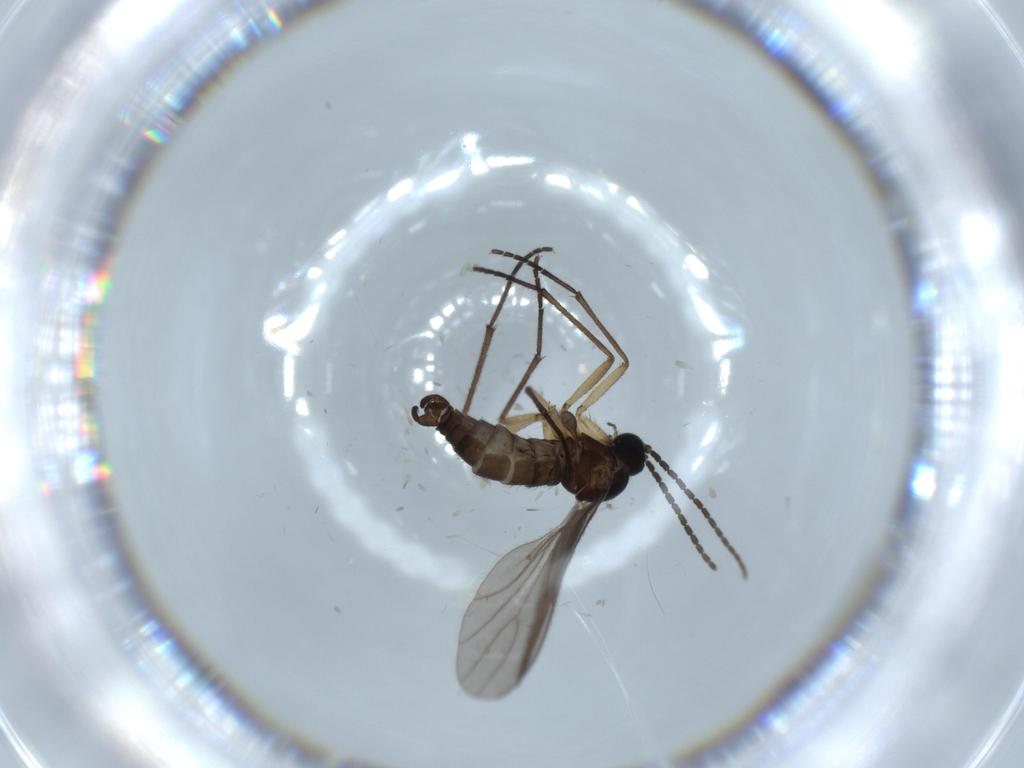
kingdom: Animalia
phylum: Arthropoda
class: Insecta
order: Diptera
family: Sciaridae
